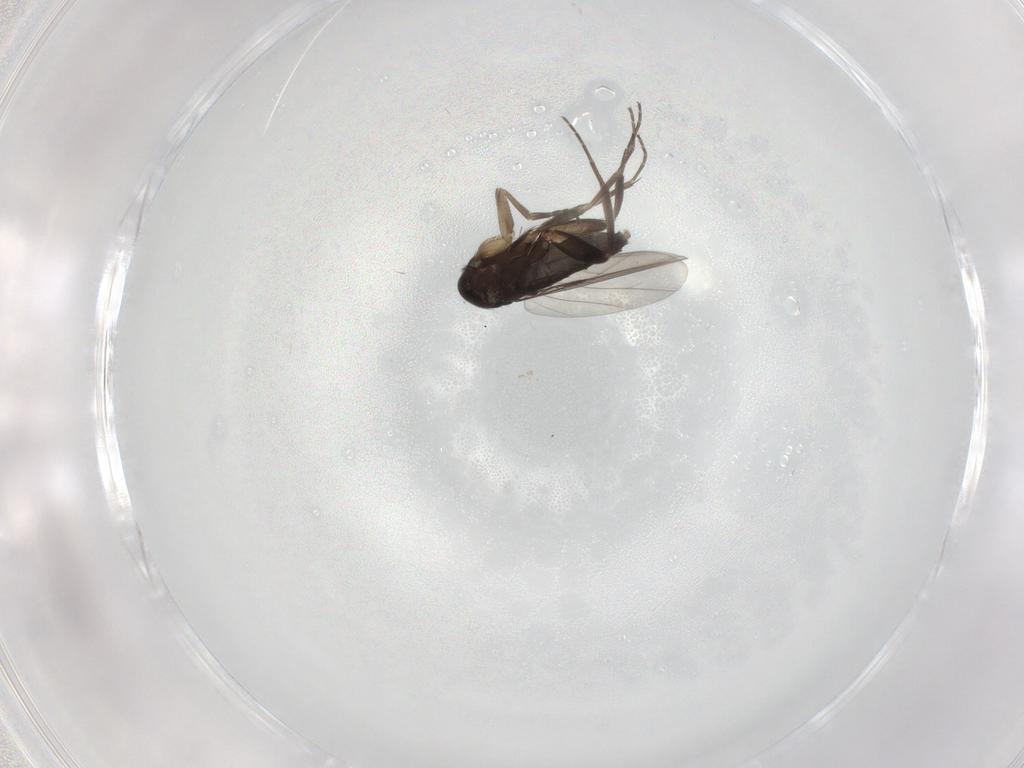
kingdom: Animalia
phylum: Arthropoda
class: Insecta
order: Diptera
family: Phoridae
